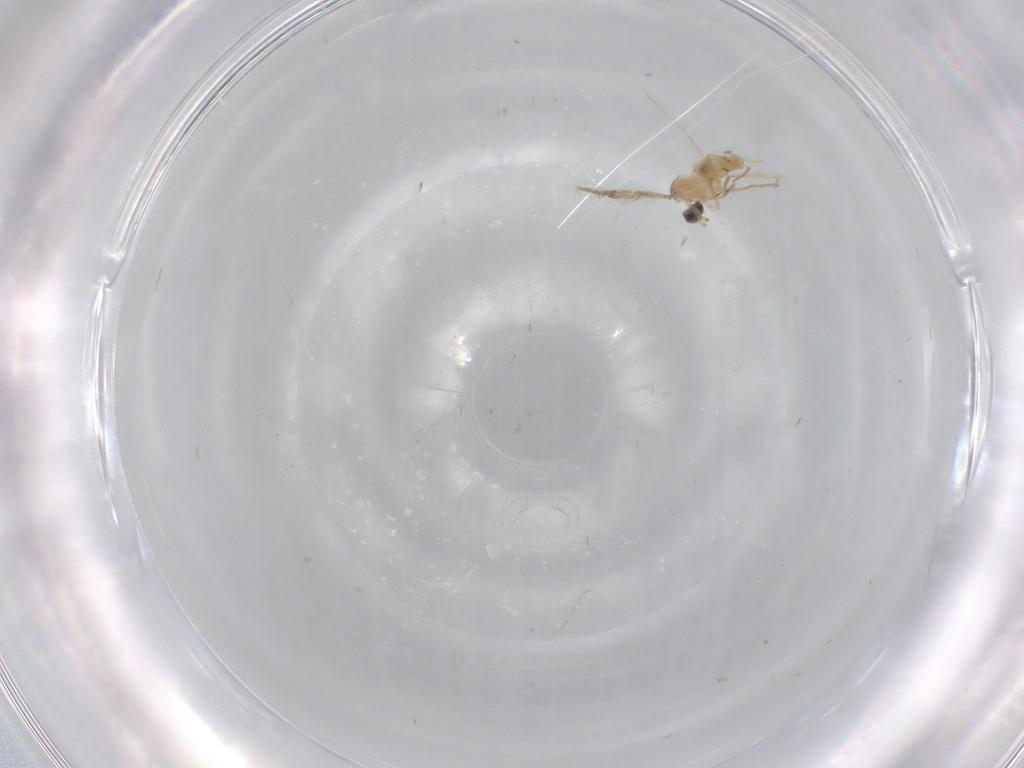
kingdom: Animalia
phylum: Arthropoda
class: Insecta
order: Diptera
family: Cecidomyiidae
